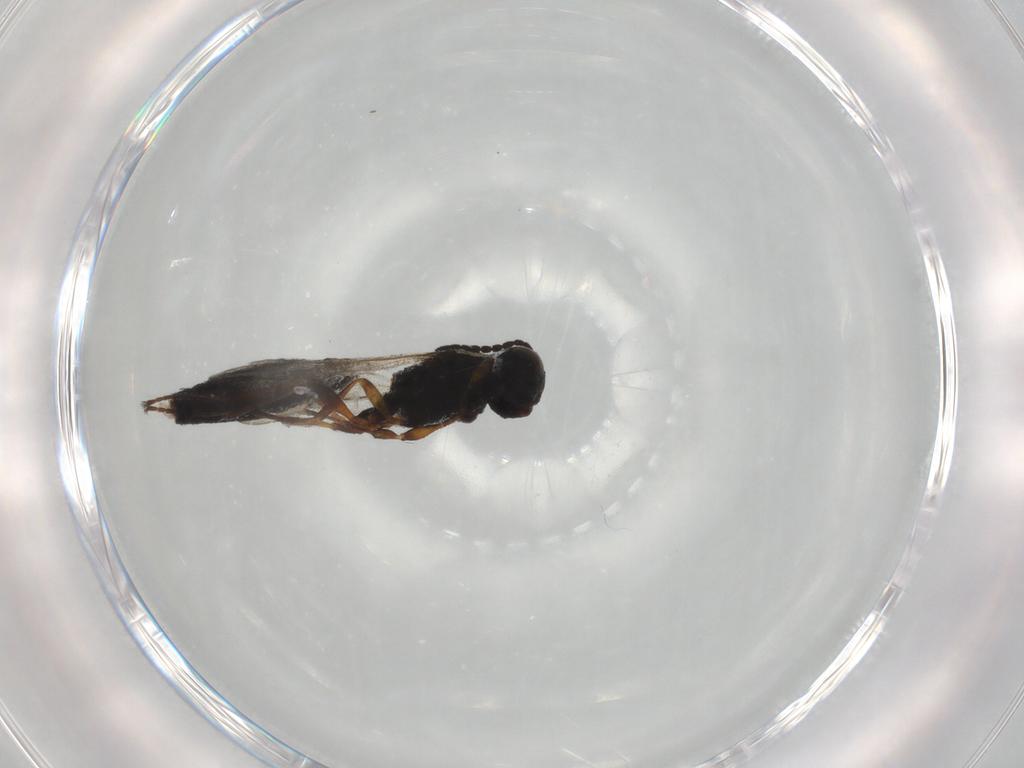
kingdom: Animalia
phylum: Arthropoda
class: Insecta
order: Hymenoptera
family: Scelionidae
